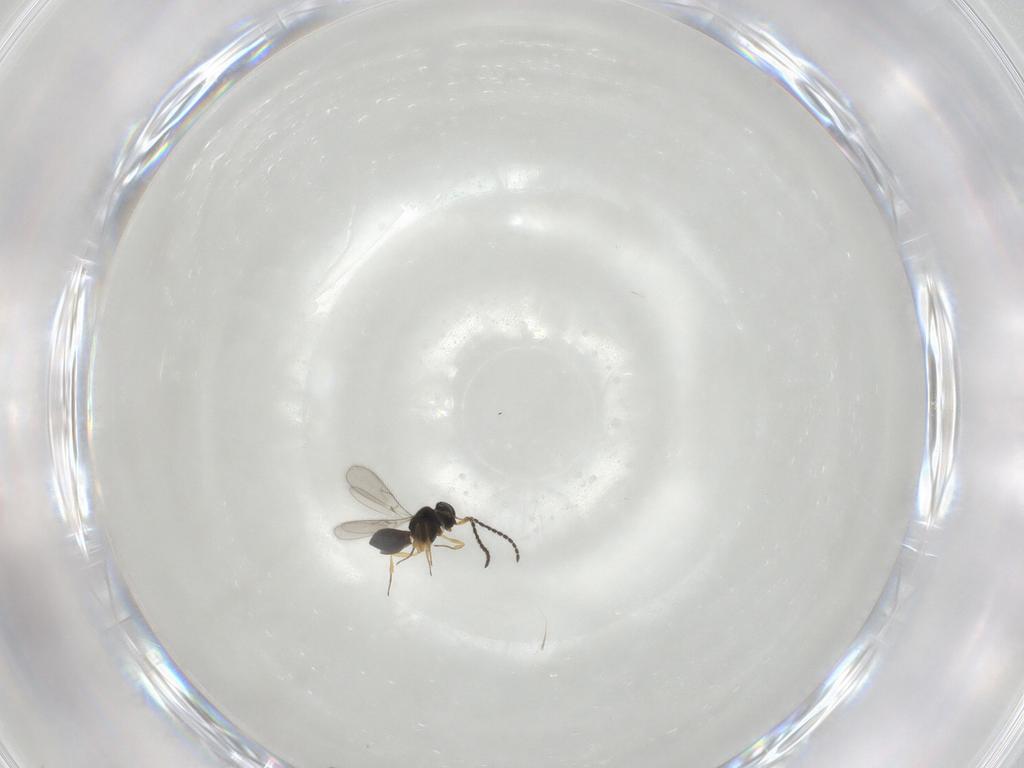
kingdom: Animalia
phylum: Arthropoda
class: Insecta
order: Hymenoptera
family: Scelionidae
